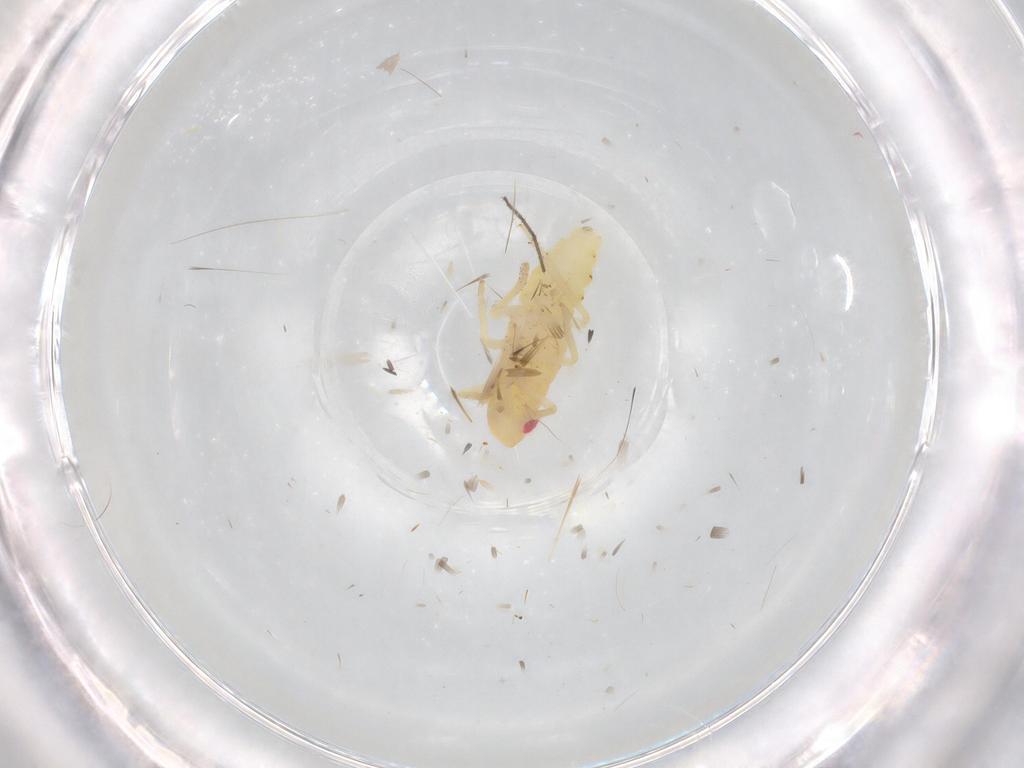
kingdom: Animalia
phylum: Arthropoda
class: Insecta
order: Hemiptera
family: Tropiduchidae
